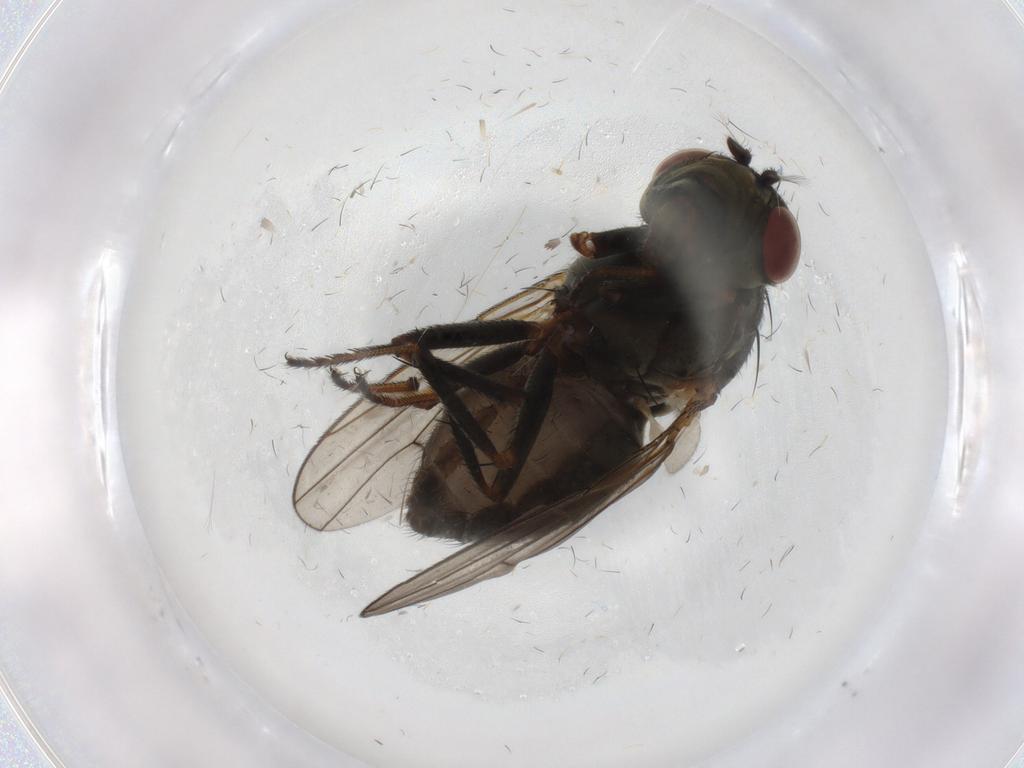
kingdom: Animalia
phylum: Arthropoda
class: Insecta
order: Diptera
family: Ephydridae
